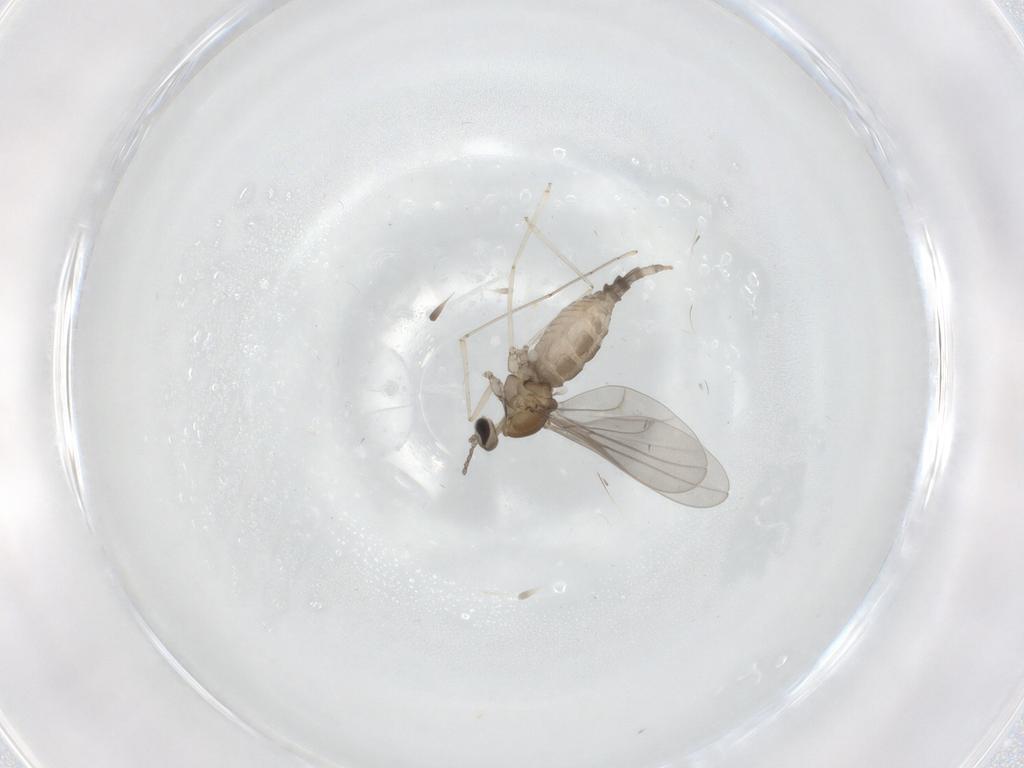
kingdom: Animalia
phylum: Arthropoda
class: Insecta
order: Diptera
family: Cecidomyiidae
